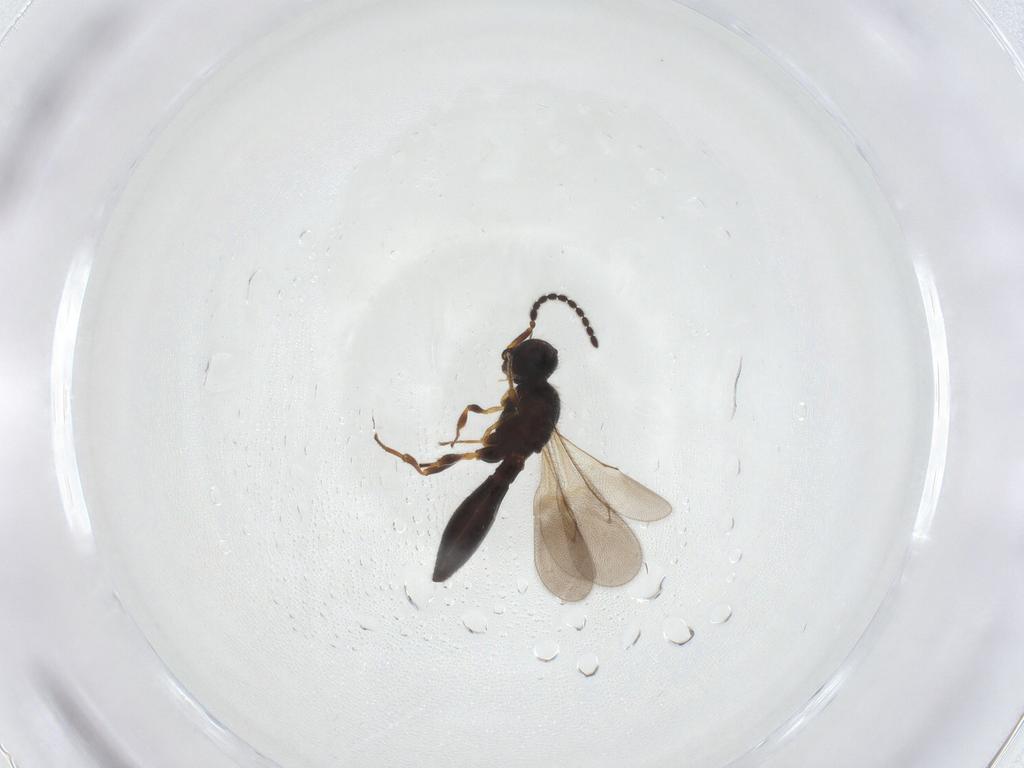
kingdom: Animalia
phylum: Arthropoda
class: Insecta
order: Hymenoptera
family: Scelionidae
